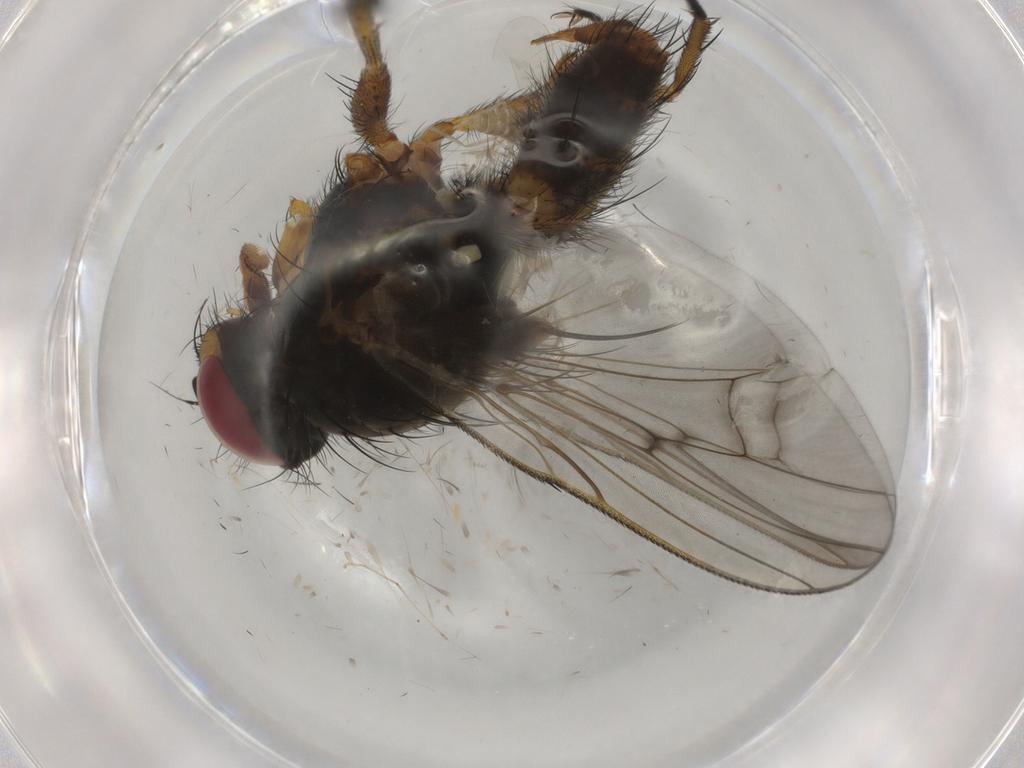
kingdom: Animalia
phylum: Arthropoda
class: Insecta
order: Diptera
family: Anthomyiidae
